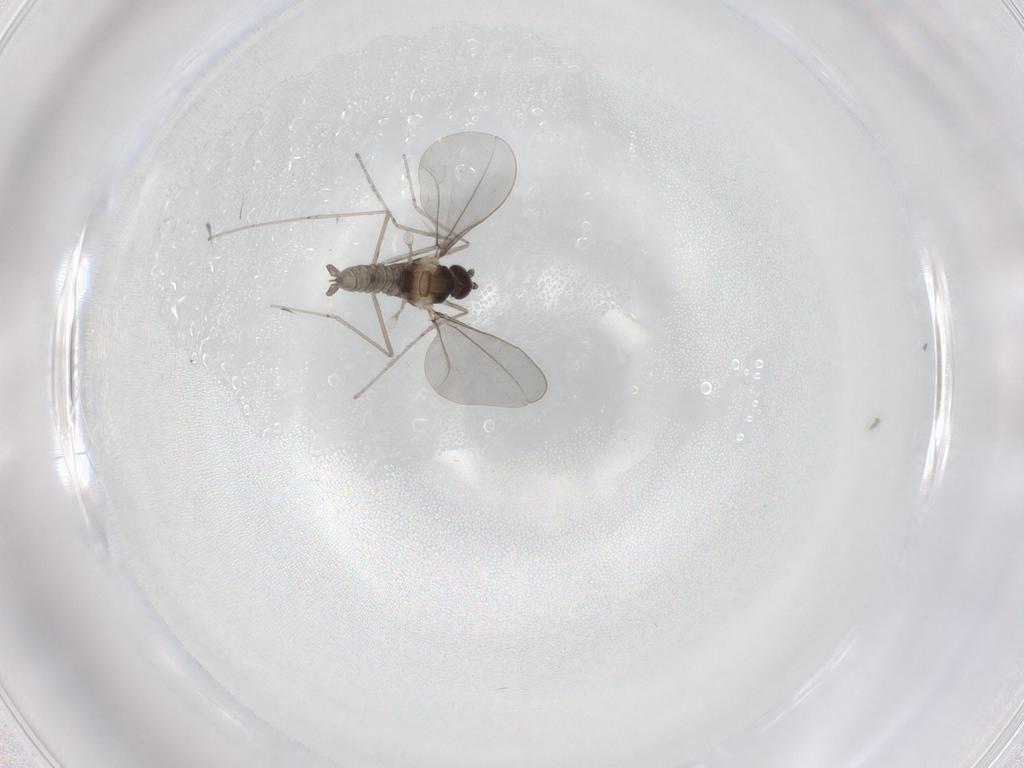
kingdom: Animalia
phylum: Arthropoda
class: Insecta
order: Diptera
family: Cecidomyiidae
